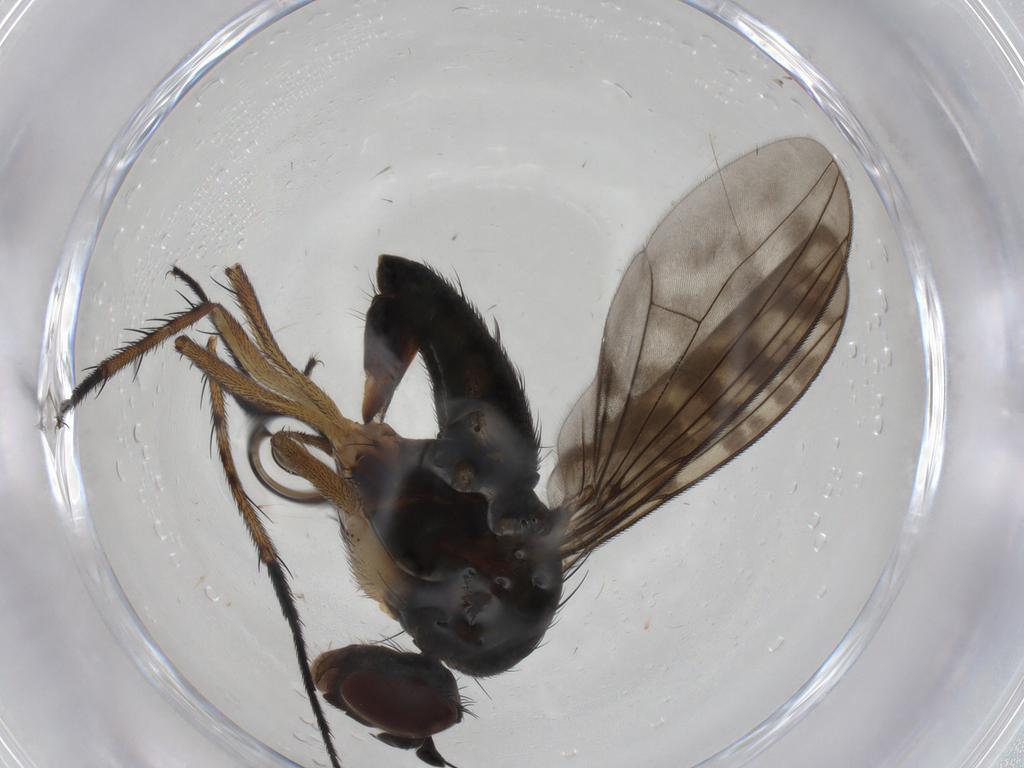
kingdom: Animalia
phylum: Arthropoda
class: Insecta
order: Diptera
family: Dolichopodidae
